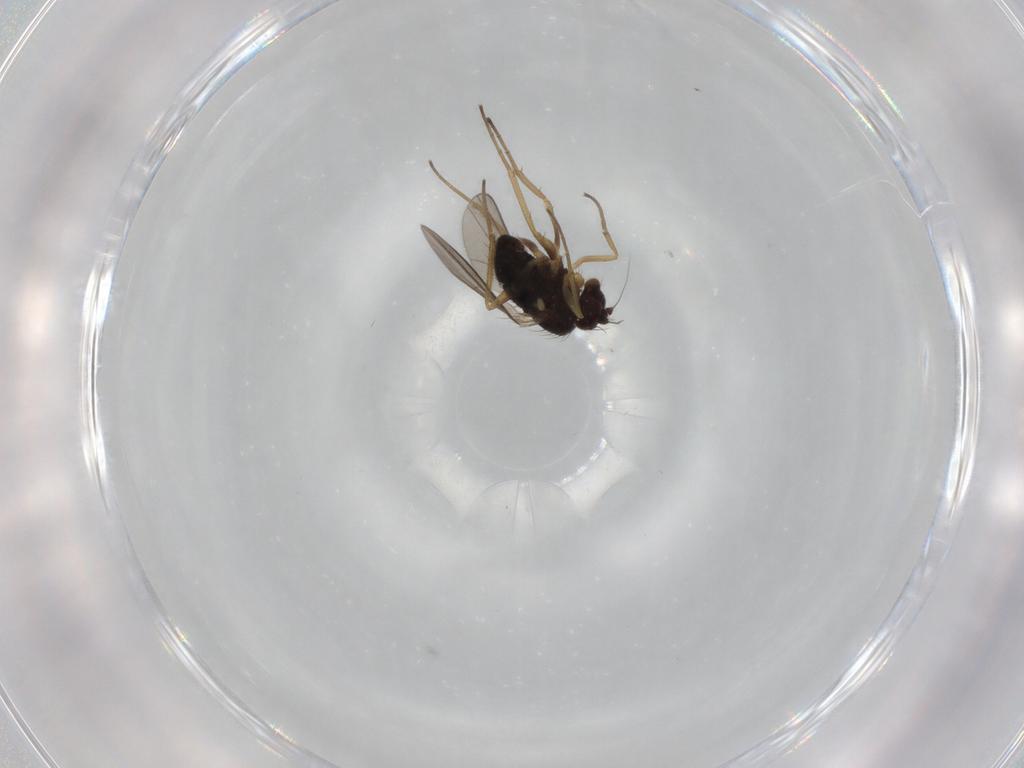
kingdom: Animalia
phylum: Arthropoda
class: Insecta
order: Diptera
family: Dolichopodidae
